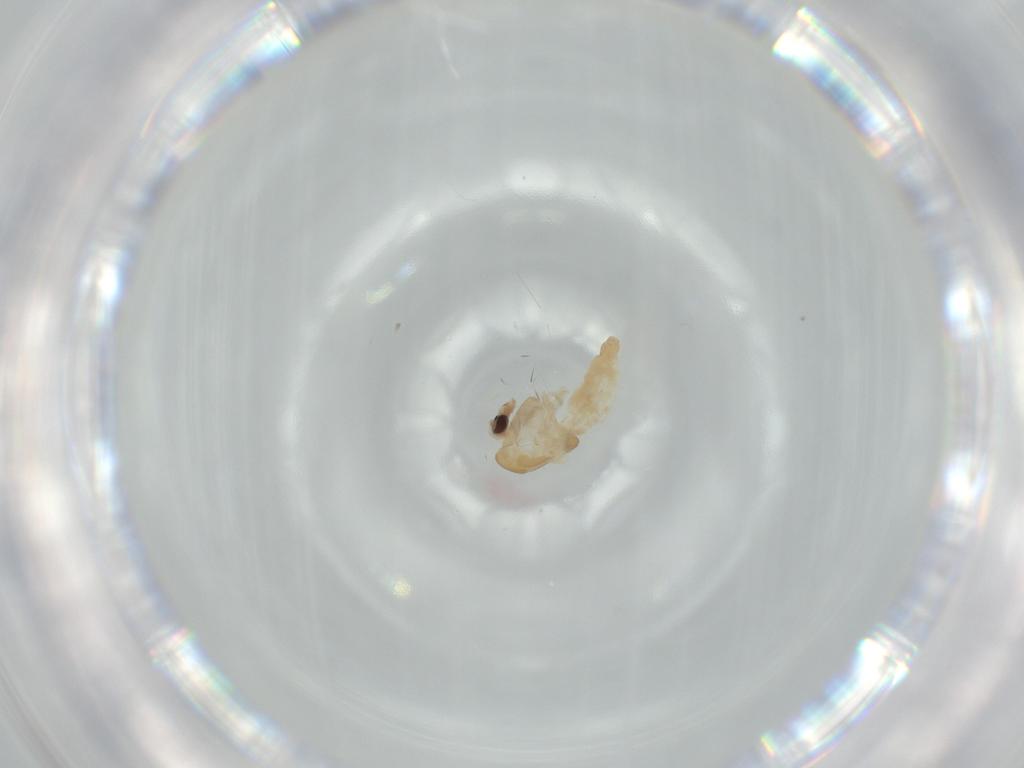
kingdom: Animalia
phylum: Arthropoda
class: Insecta
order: Diptera
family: Chironomidae
